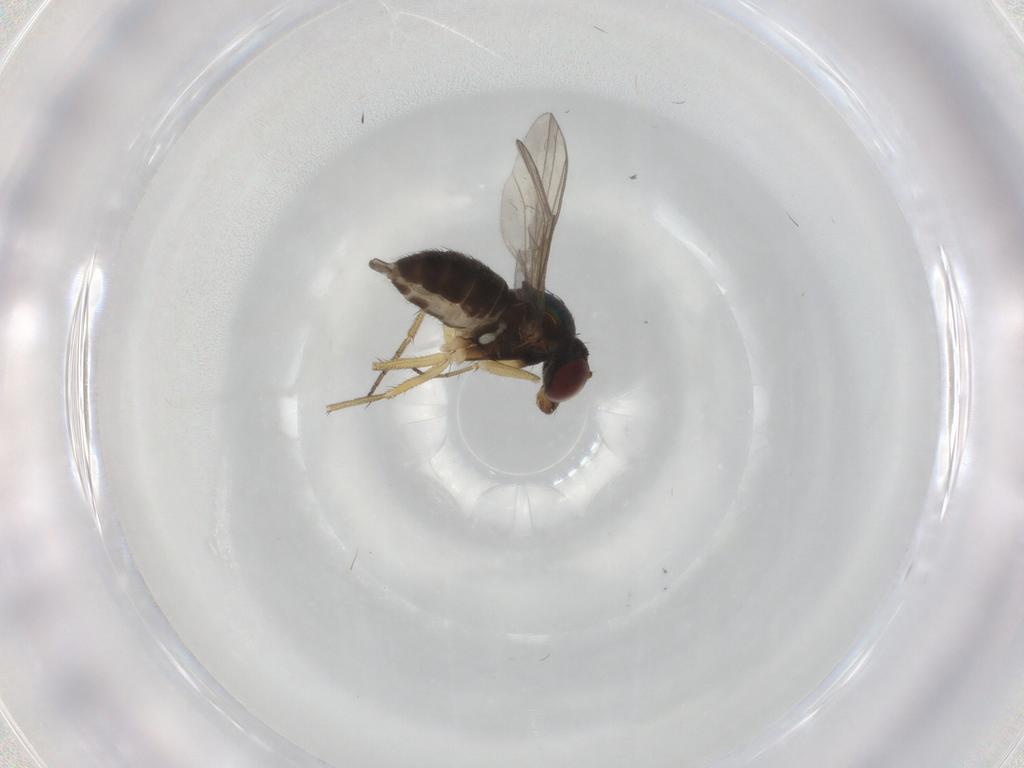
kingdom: Animalia
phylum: Arthropoda
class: Insecta
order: Diptera
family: Dolichopodidae
